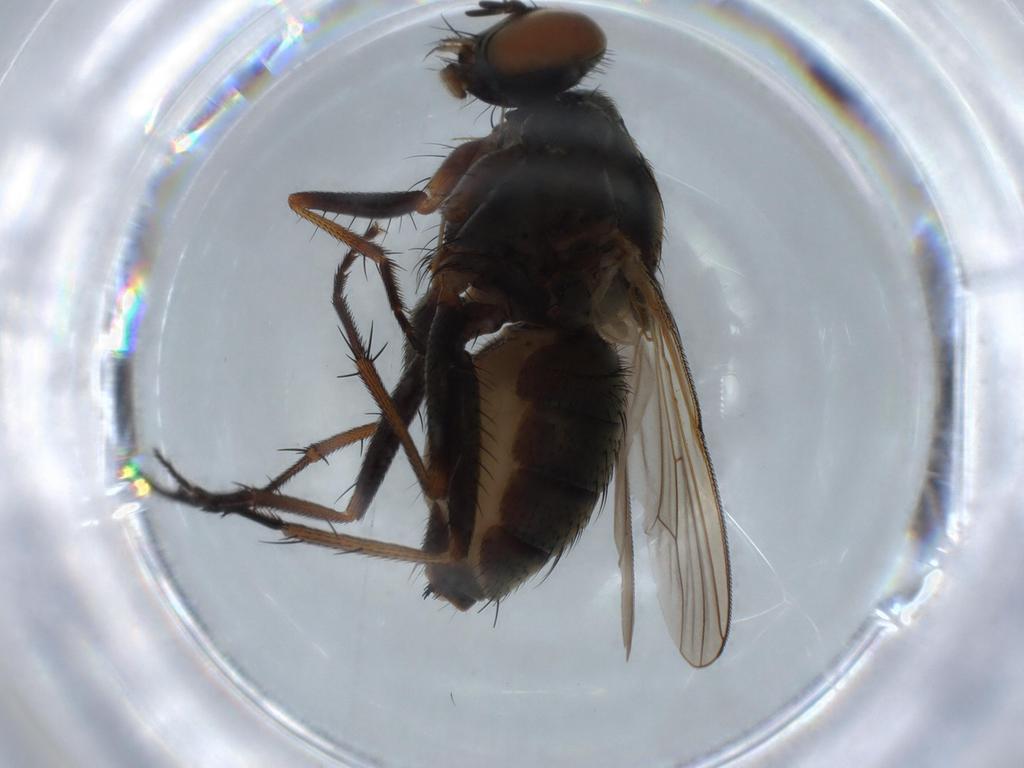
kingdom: Animalia
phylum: Arthropoda
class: Insecta
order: Diptera
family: Muscidae
